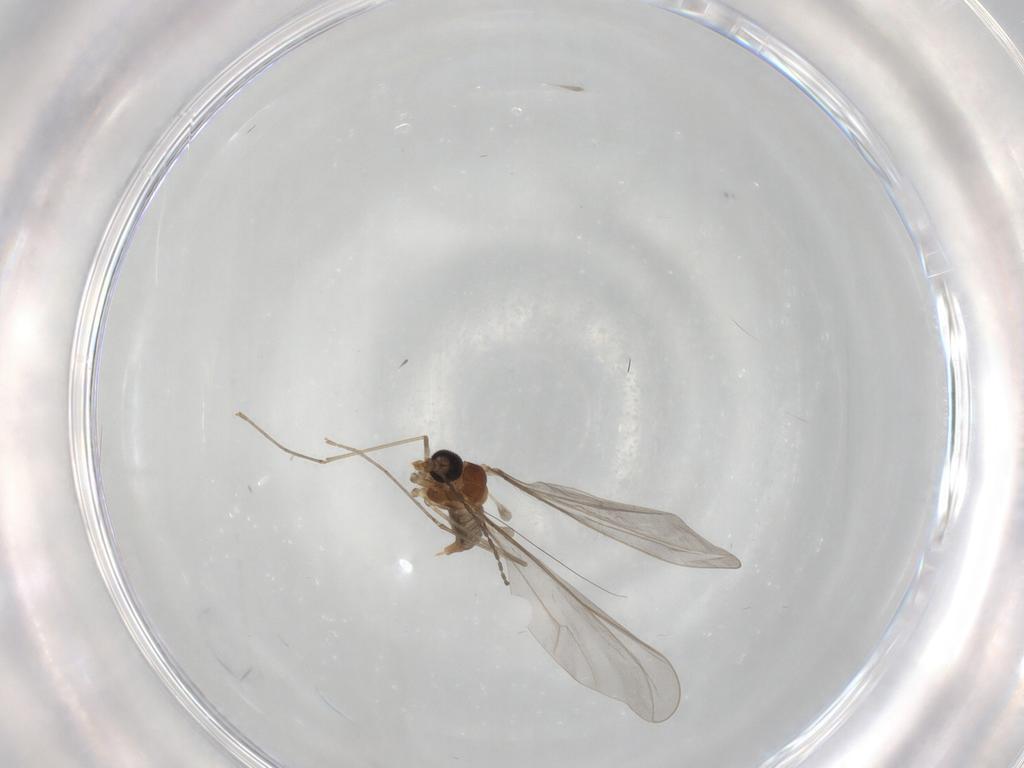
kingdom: Animalia
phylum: Arthropoda
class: Insecta
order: Diptera
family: Cecidomyiidae
